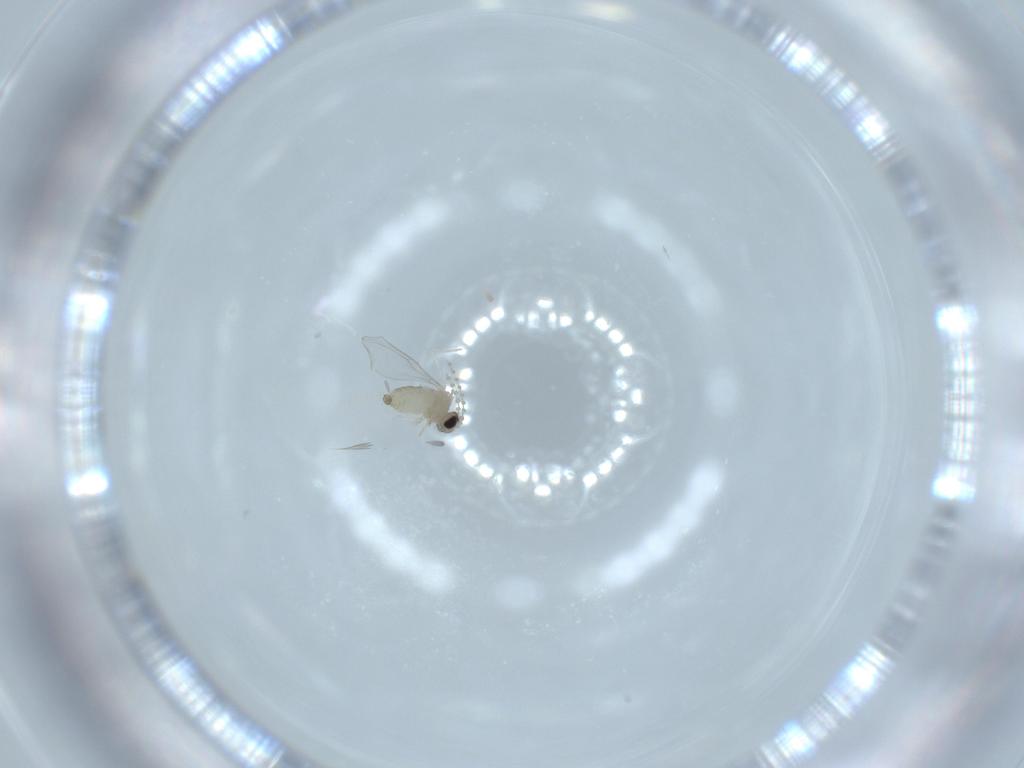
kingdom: Animalia
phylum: Arthropoda
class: Insecta
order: Diptera
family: Cecidomyiidae
